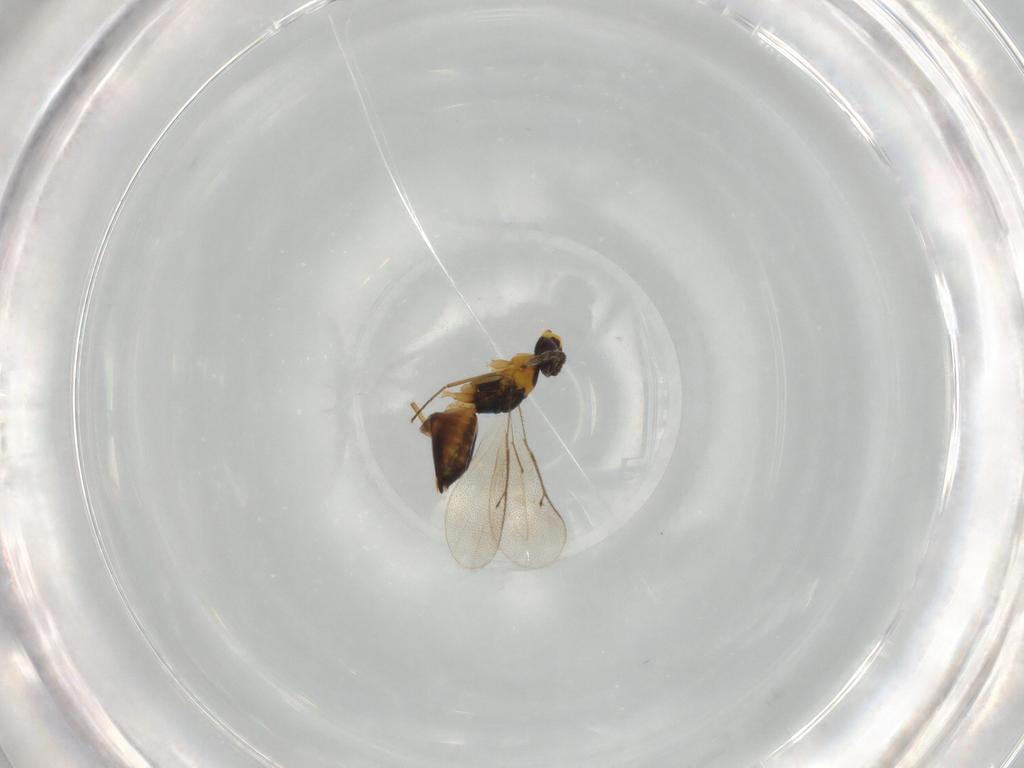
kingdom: Animalia
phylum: Arthropoda
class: Insecta
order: Hymenoptera
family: Eulophidae
